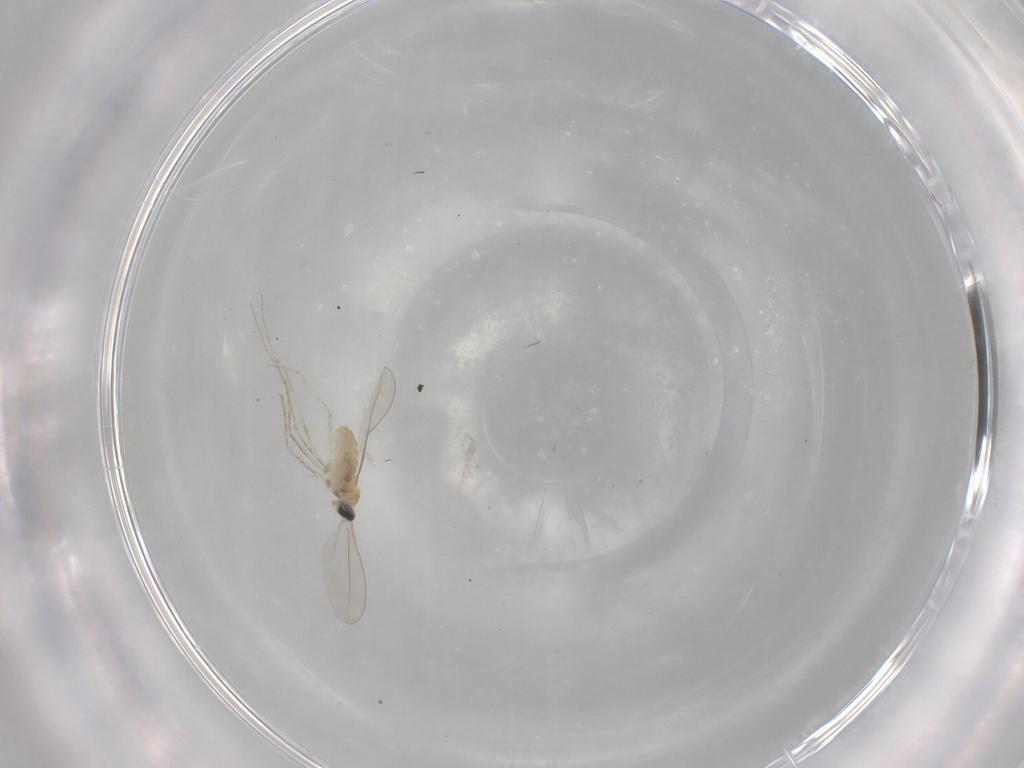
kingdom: Animalia
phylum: Arthropoda
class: Insecta
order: Diptera
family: Cecidomyiidae
